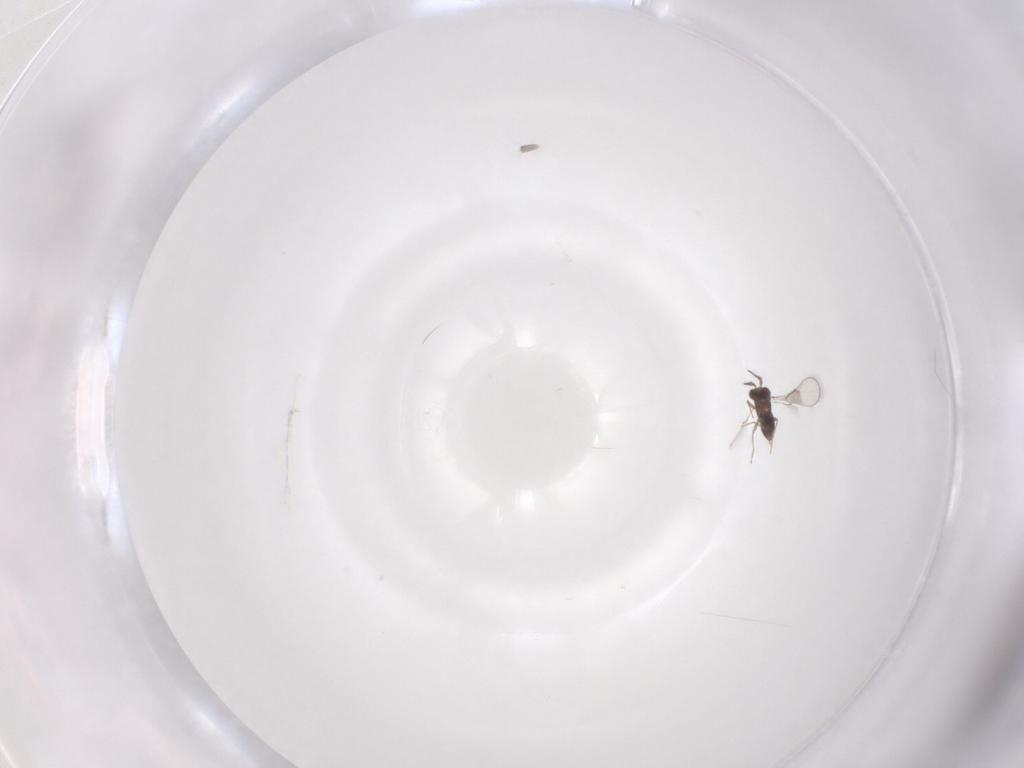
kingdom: Animalia
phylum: Arthropoda
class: Insecta
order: Hymenoptera
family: Trichogrammatidae
